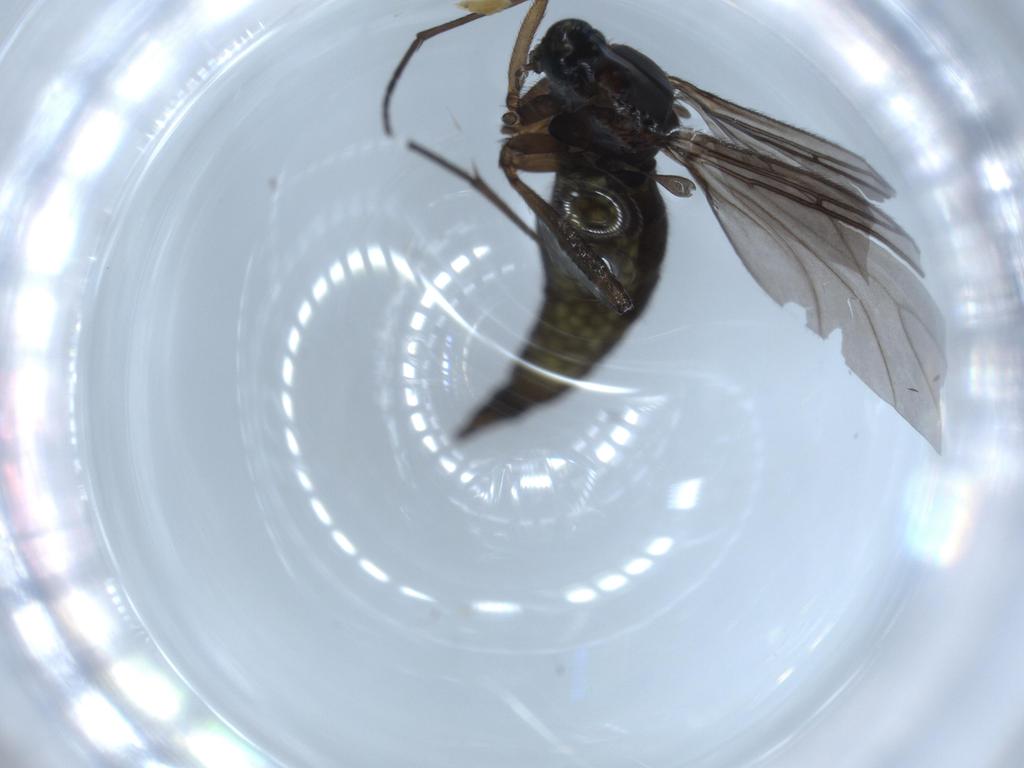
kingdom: Animalia
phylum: Arthropoda
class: Insecta
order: Diptera
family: Sciaridae
